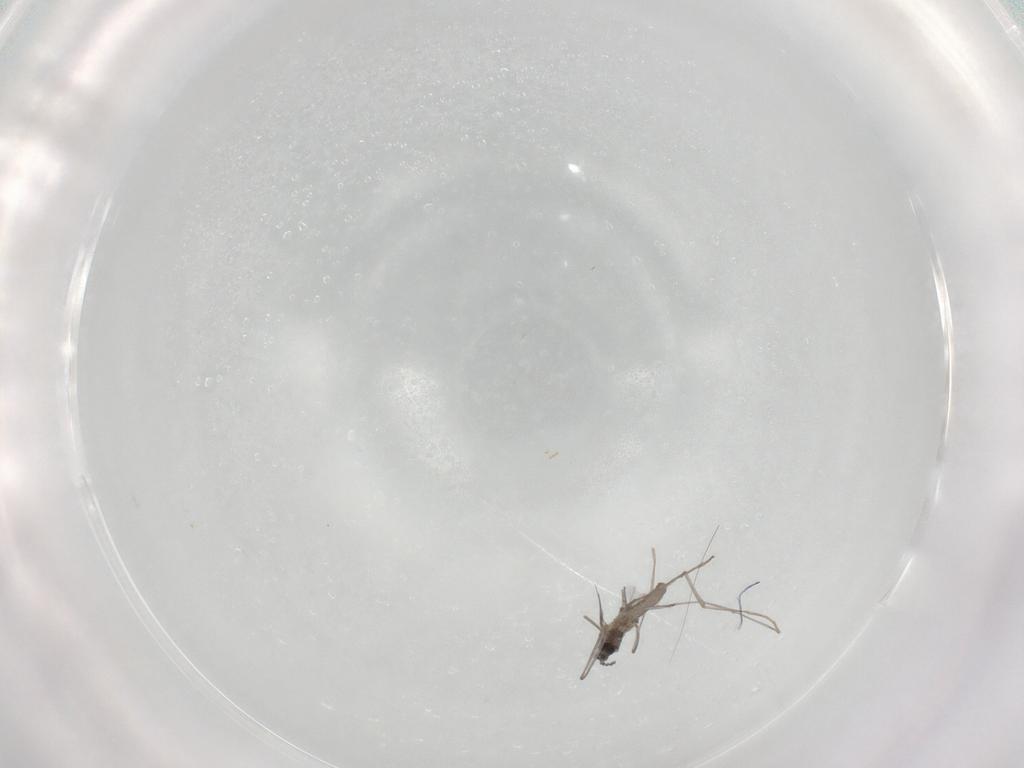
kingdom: Animalia
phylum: Arthropoda
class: Insecta
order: Diptera
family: Cecidomyiidae
